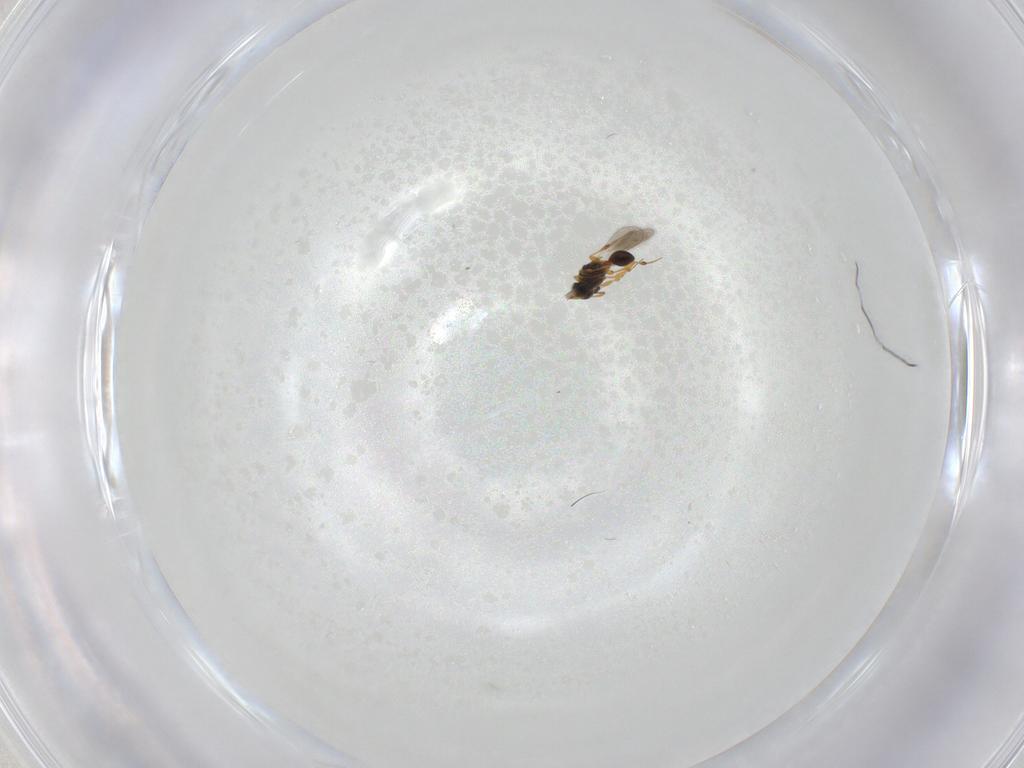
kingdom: Animalia
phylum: Arthropoda
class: Insecta
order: Hymenoptera
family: Platygastridae
